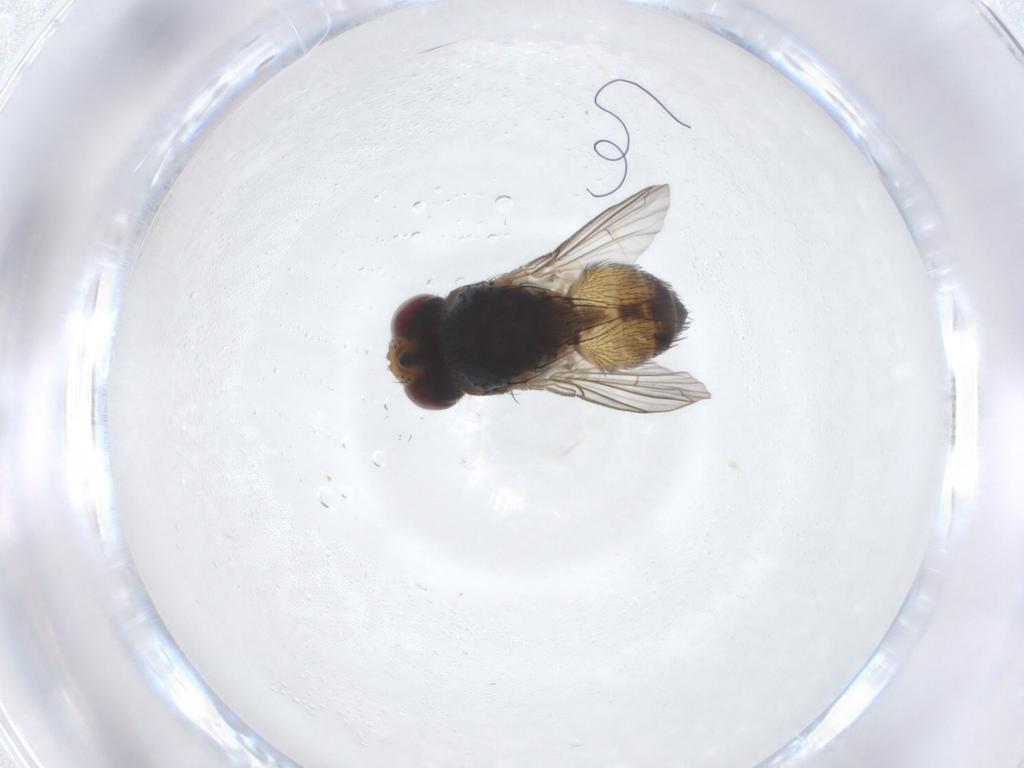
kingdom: Animalia
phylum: Arthropoda
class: Insecta
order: Diptera
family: Tachinidae
